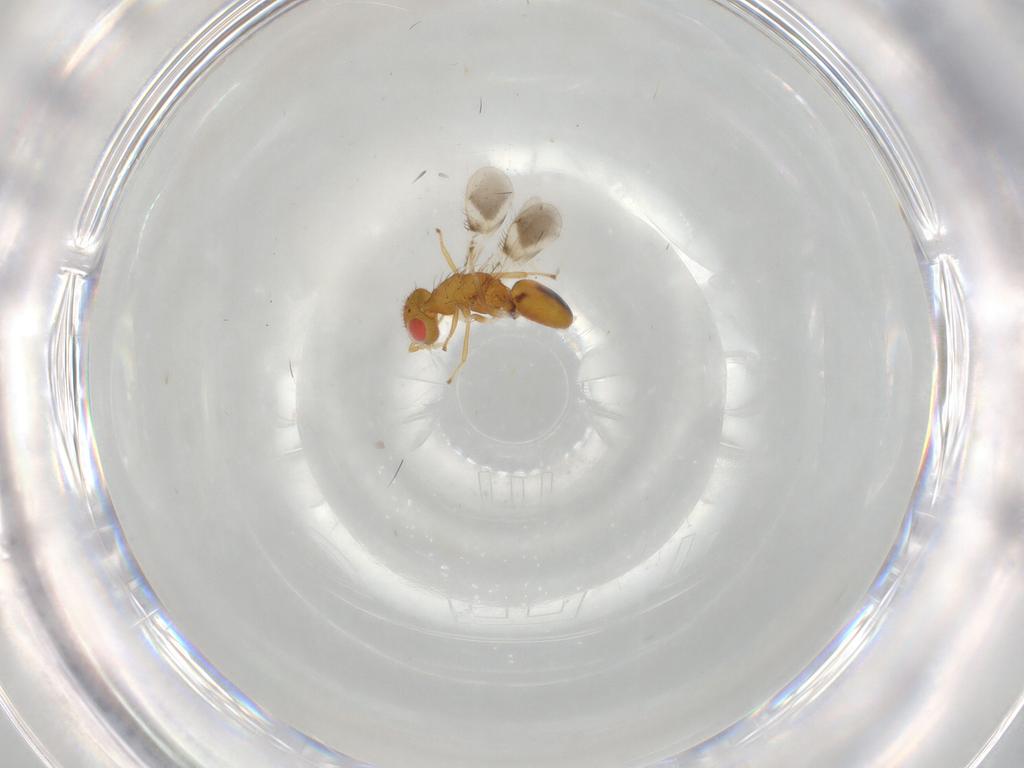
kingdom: Animalia
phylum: Arthropoda
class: Insecta
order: Hymenoptera
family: Eulophidae
